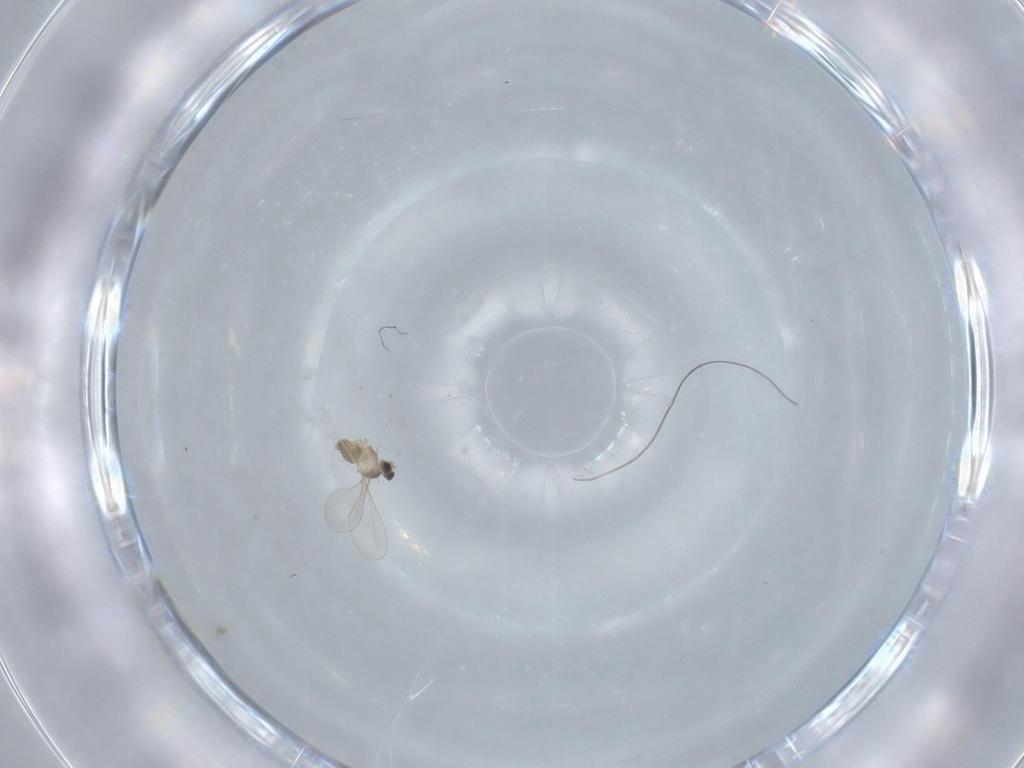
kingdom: Animalia
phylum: Arthropoda
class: Insecta
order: Diptera
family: Cecidomyiidae
